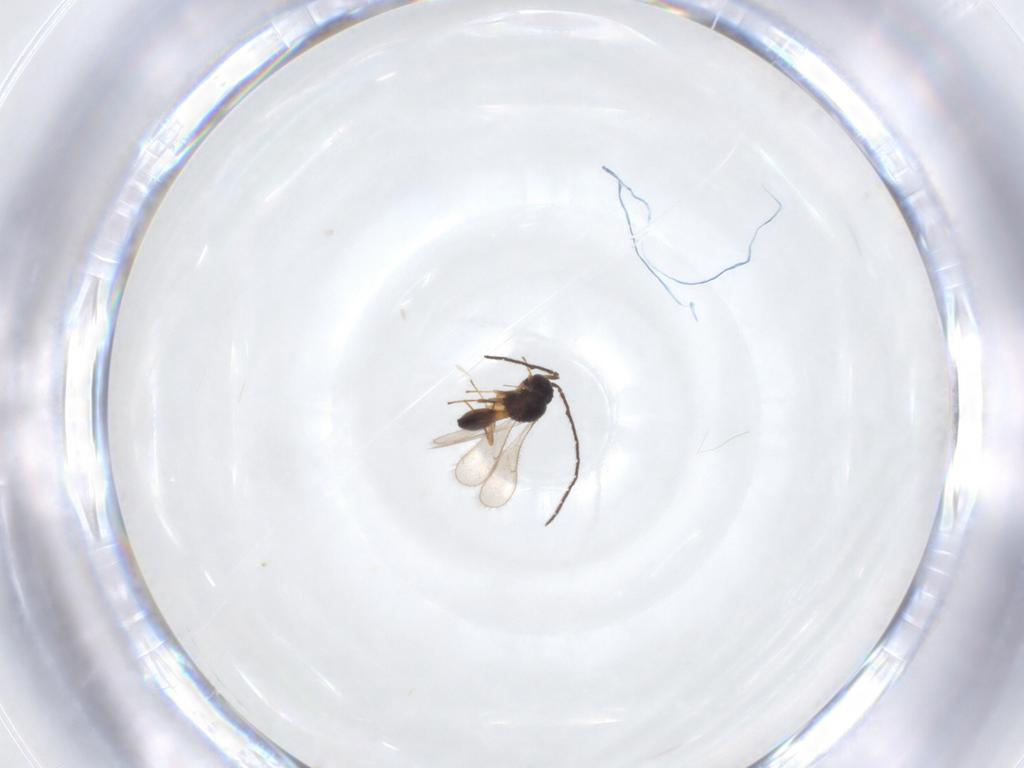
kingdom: Animalia
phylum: Arthropoda
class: Insecta
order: Hymenoptera
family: Scelionidae
